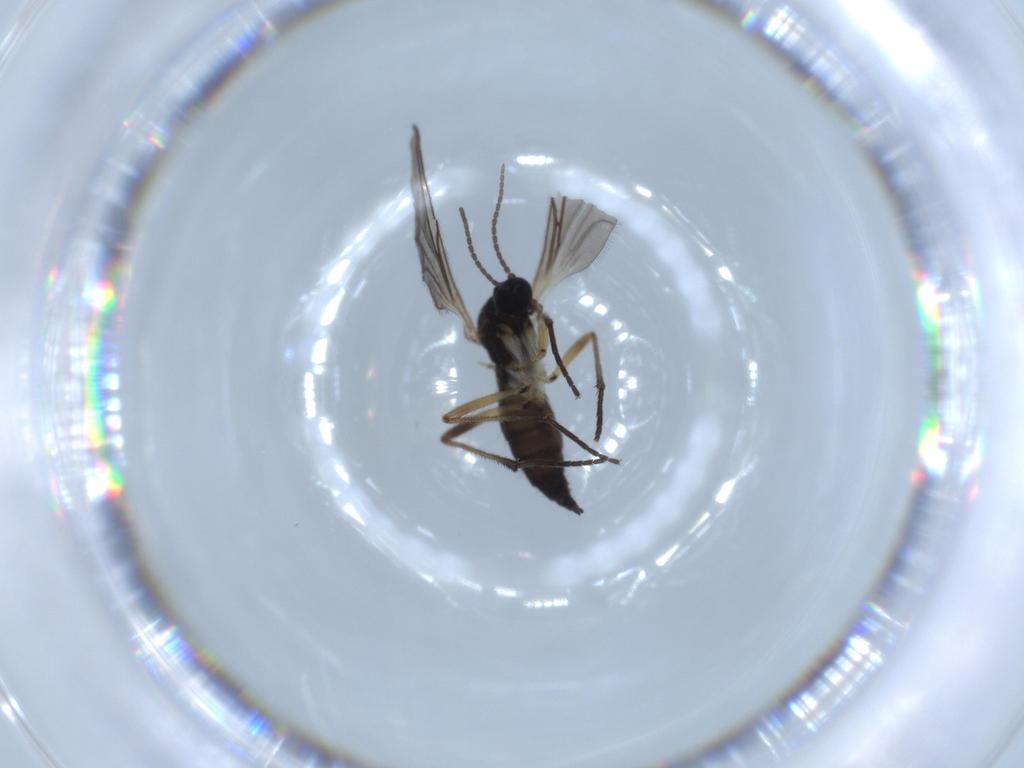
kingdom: Animalia
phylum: Arthropoda
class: Insecta
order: Diptera
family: Sciaridae
